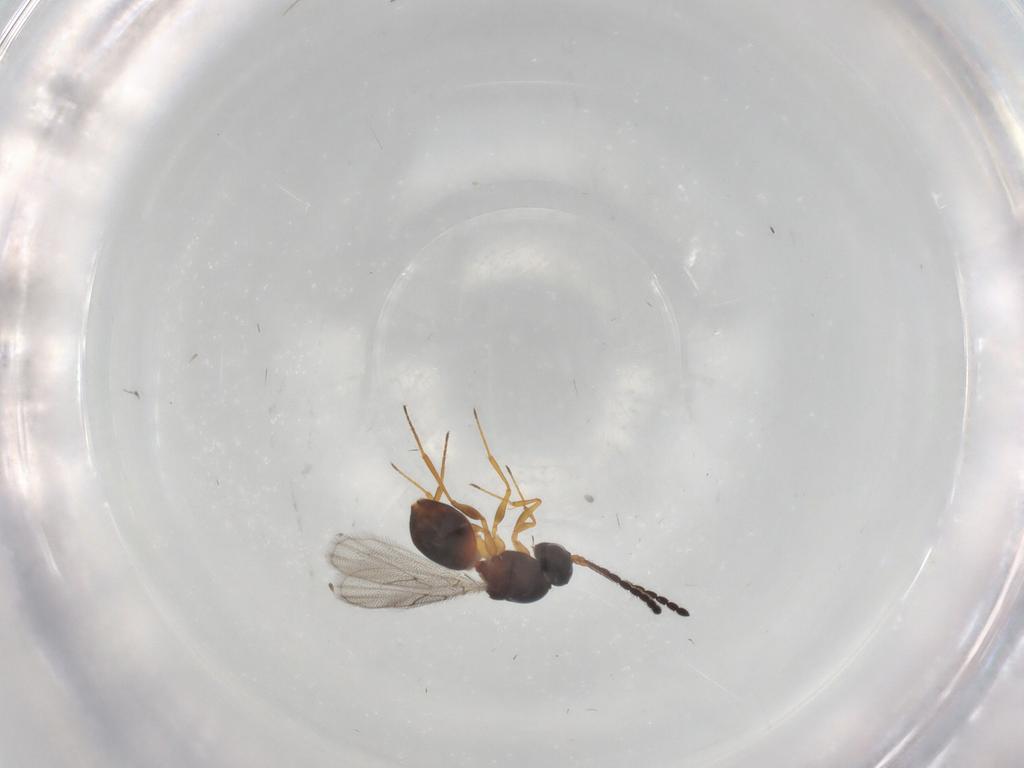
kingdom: Animalia
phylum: Arthropoda
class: Insecta
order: Hymenoptera
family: Figitidae
